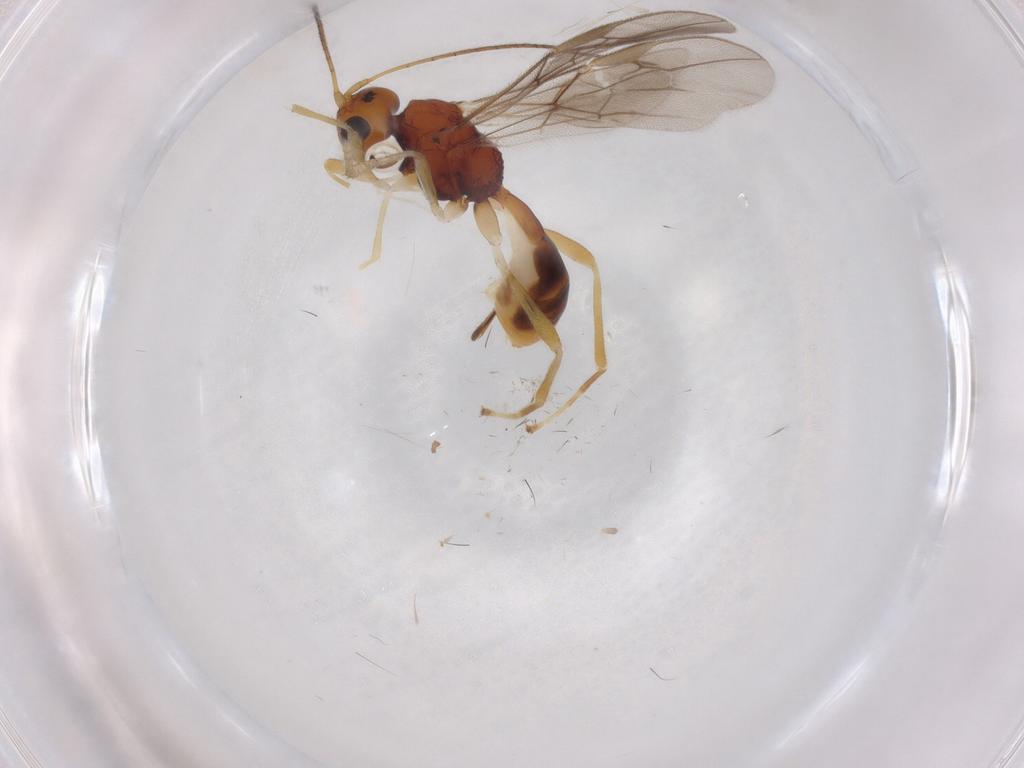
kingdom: Animalia
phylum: Arthropoda
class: Insecta
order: Hymenoptera
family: Braconidae
